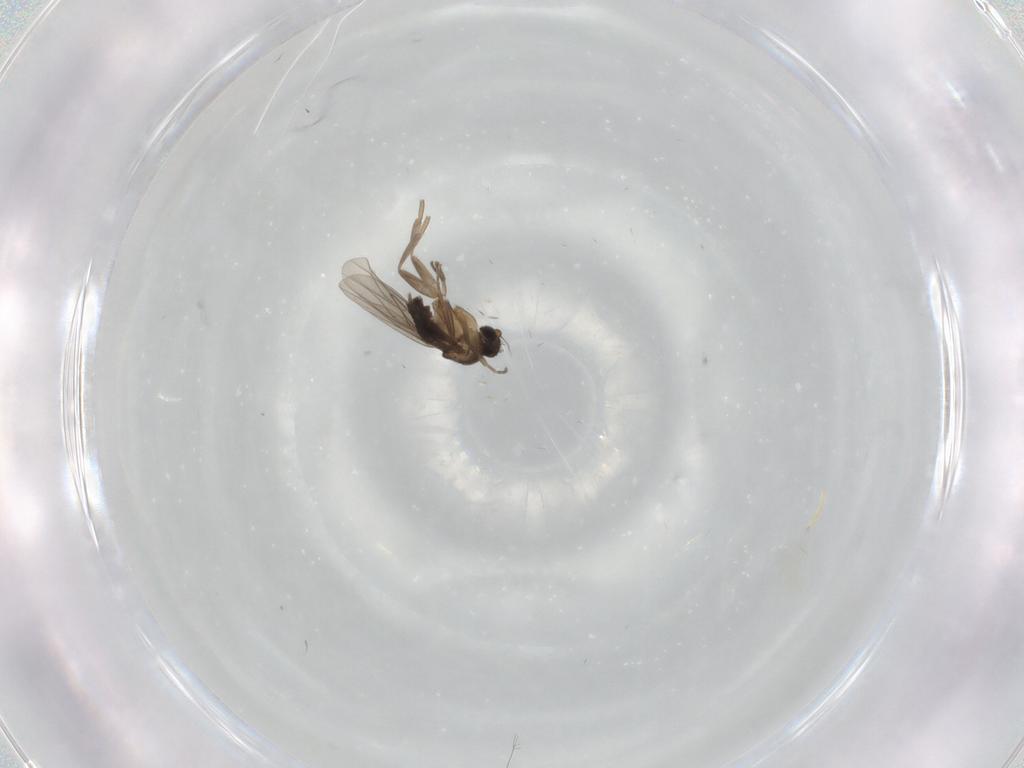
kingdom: Animalia
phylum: Arthropoda
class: Insecta
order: Diptera
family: Phoridae
